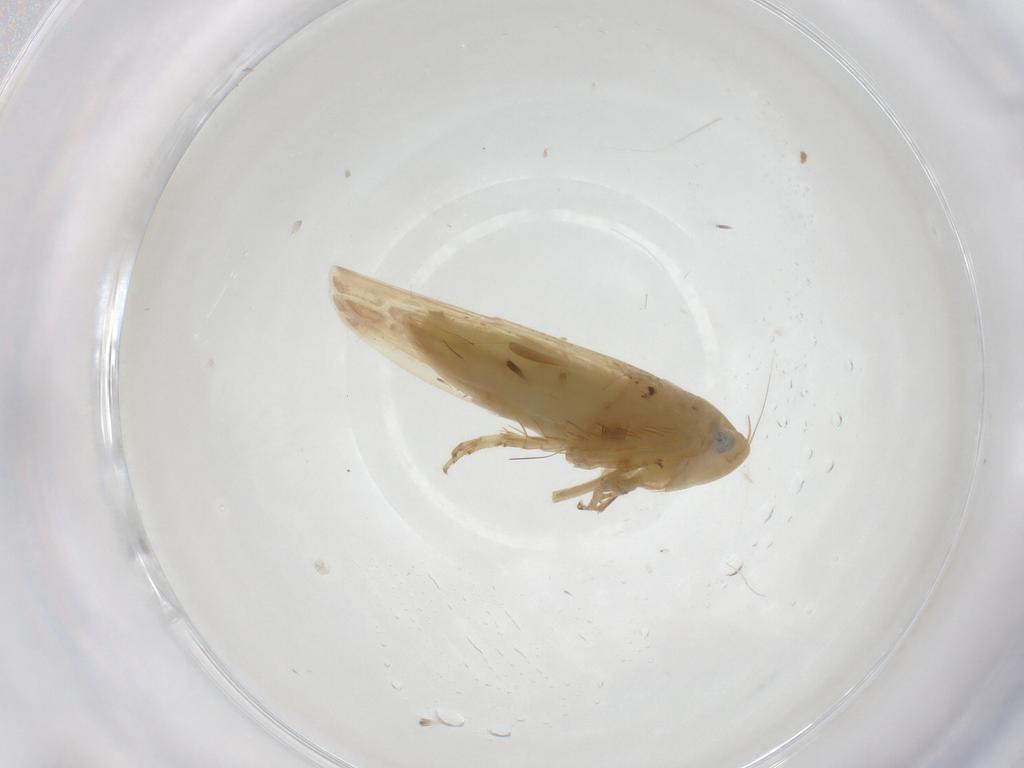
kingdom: Animalia
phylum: Arthropoda
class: Insecta
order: Hemiptera
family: Cicadellidae
